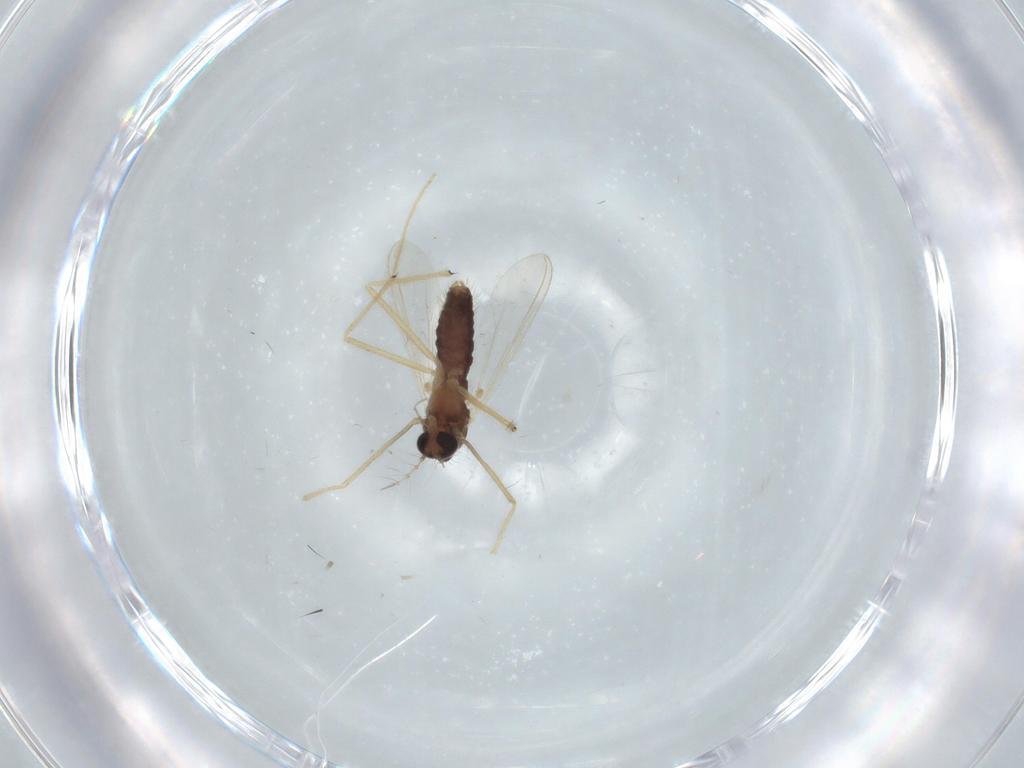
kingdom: Animalia
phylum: Arthropoda
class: Insecta
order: Diptera
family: Chironomidae
